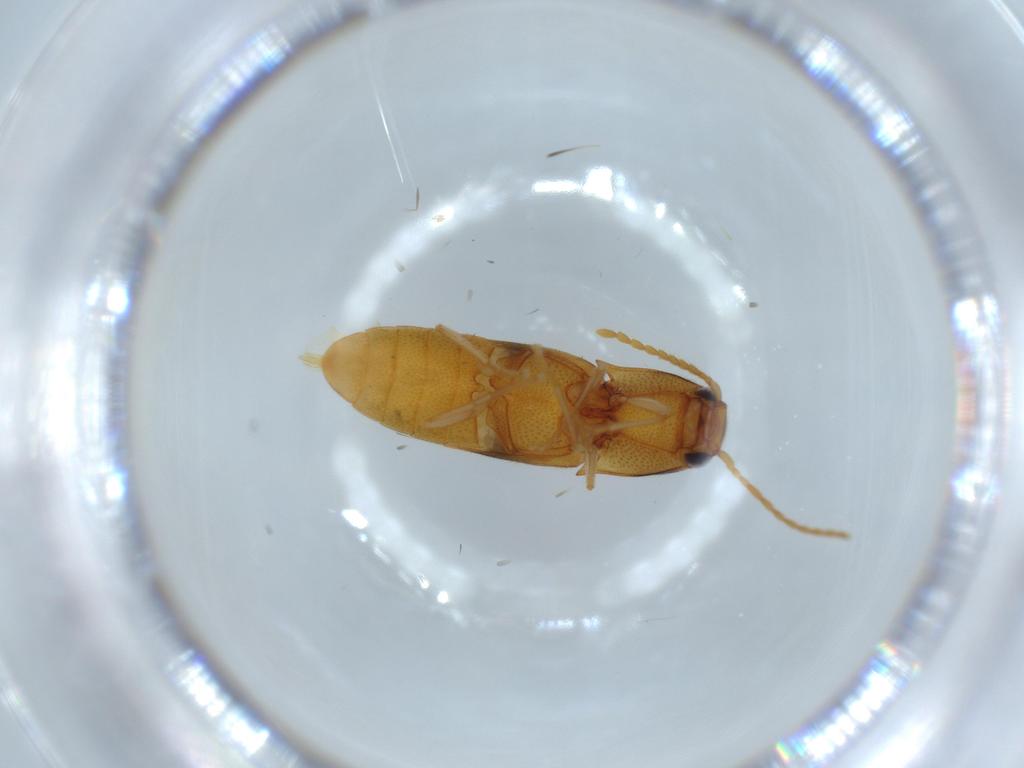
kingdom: Animalia
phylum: Arthropoda
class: Insecta
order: Coleoptera
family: Elateridae
